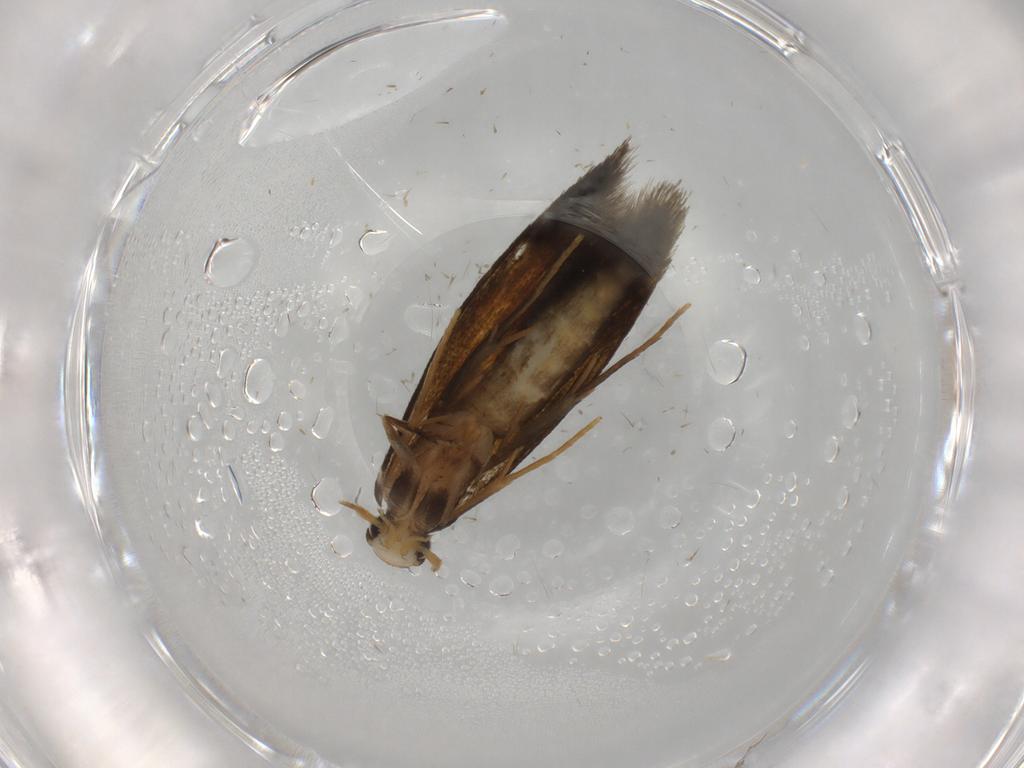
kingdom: Animalia
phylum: Arthropoda
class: Insecta
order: Lepidoptera
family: Tineidae
